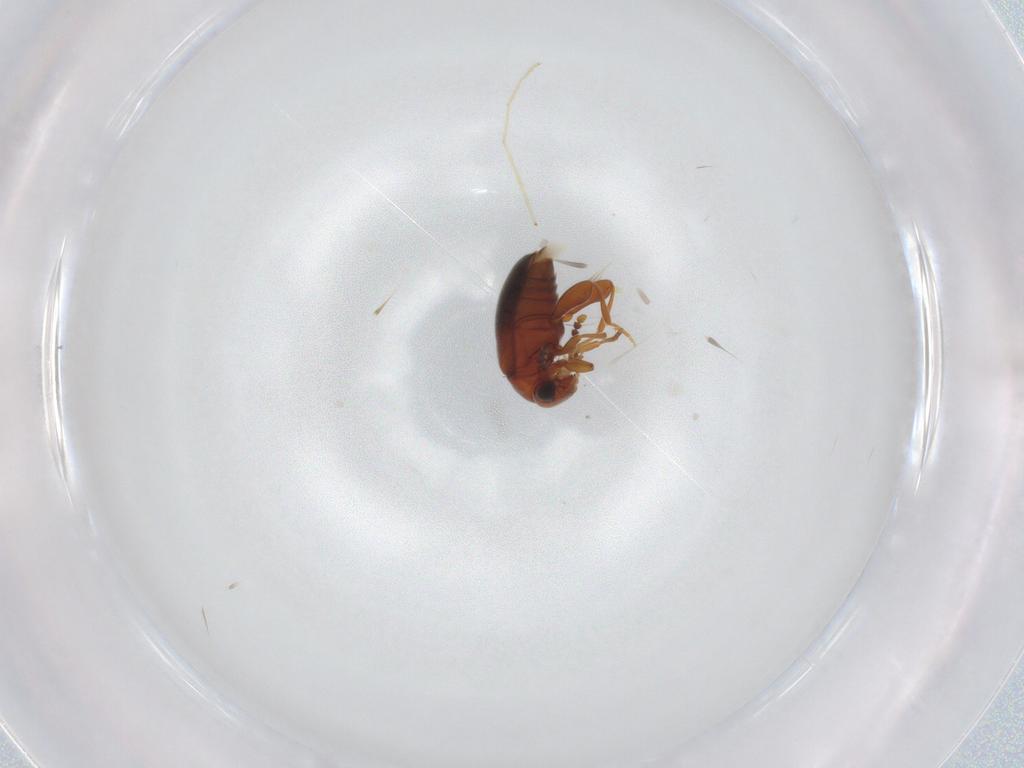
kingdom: Animalia
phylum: Arthropoda
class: Insecta
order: Coleoptera
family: Aderidae
